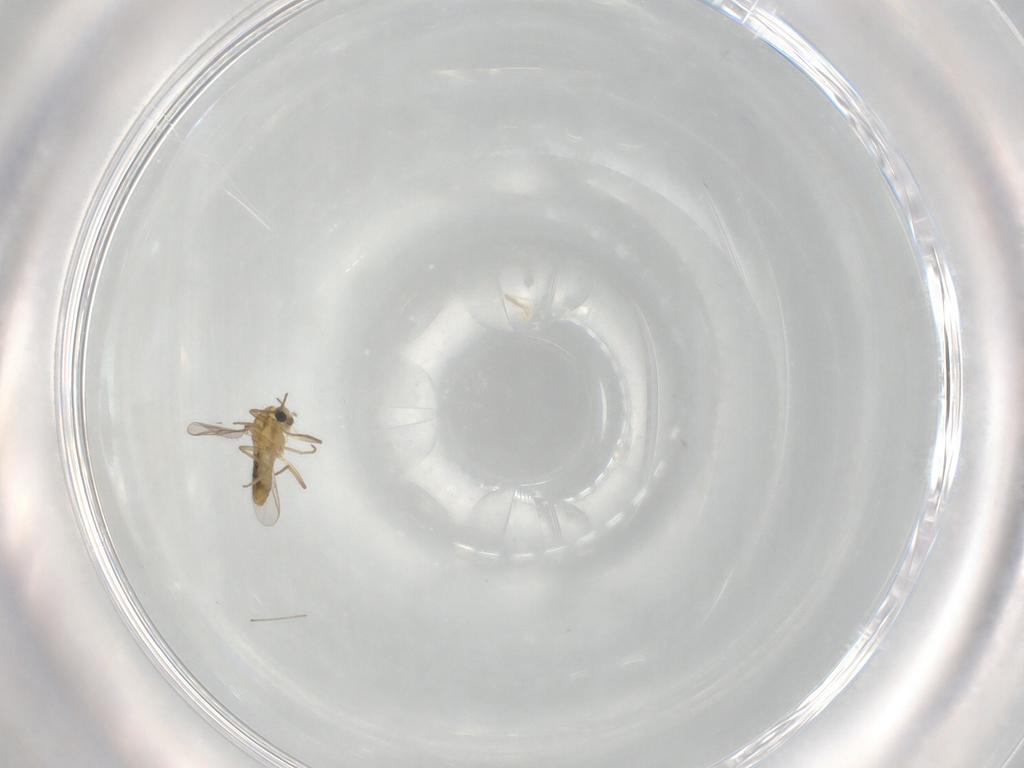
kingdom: Animalia
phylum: Arthropoda
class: Insecta
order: Diptera
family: Chironomidae
